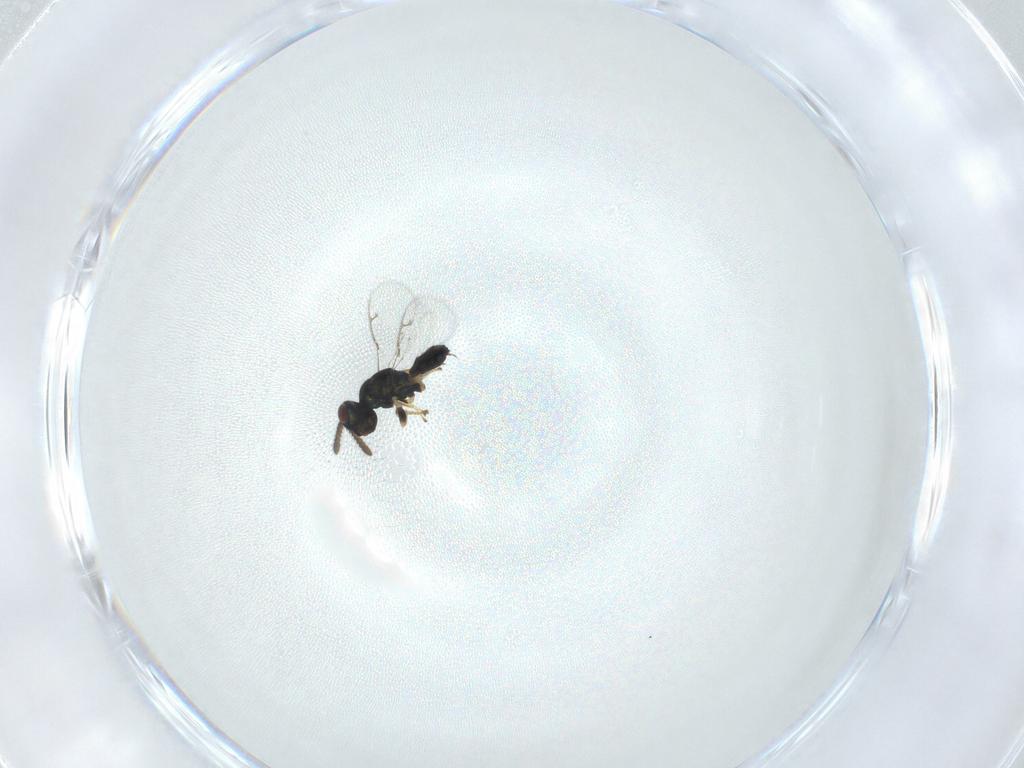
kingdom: Animalia
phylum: Arthropoda
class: Insecta
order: Hymenoptera
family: Pteromalidae
